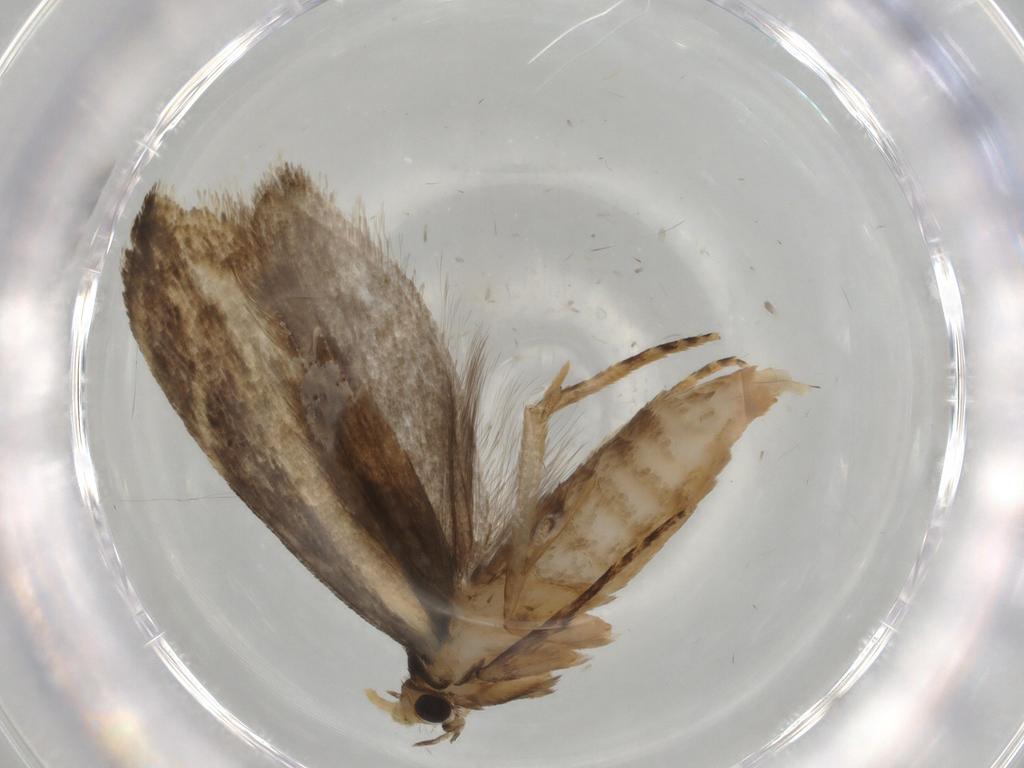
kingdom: Animalia
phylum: Arthropoda
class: Insecta
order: Lepidoptera
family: Tineidae
